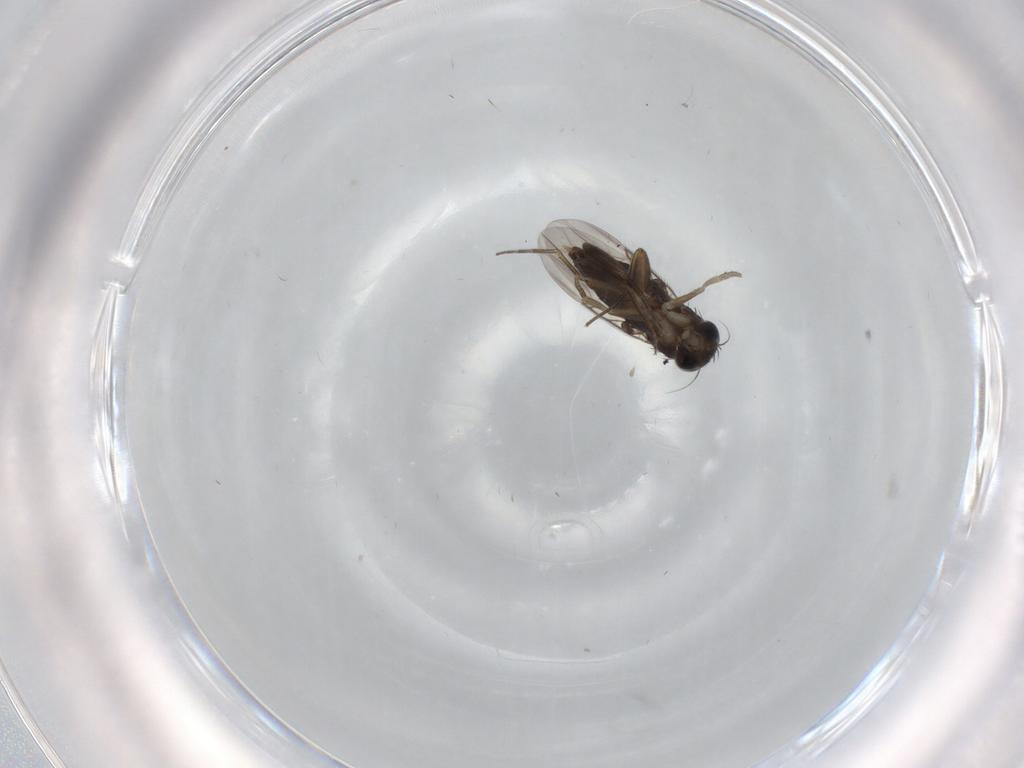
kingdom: Animalia
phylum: Arthropoda
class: Insecta
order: Diptera
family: Phoridae
